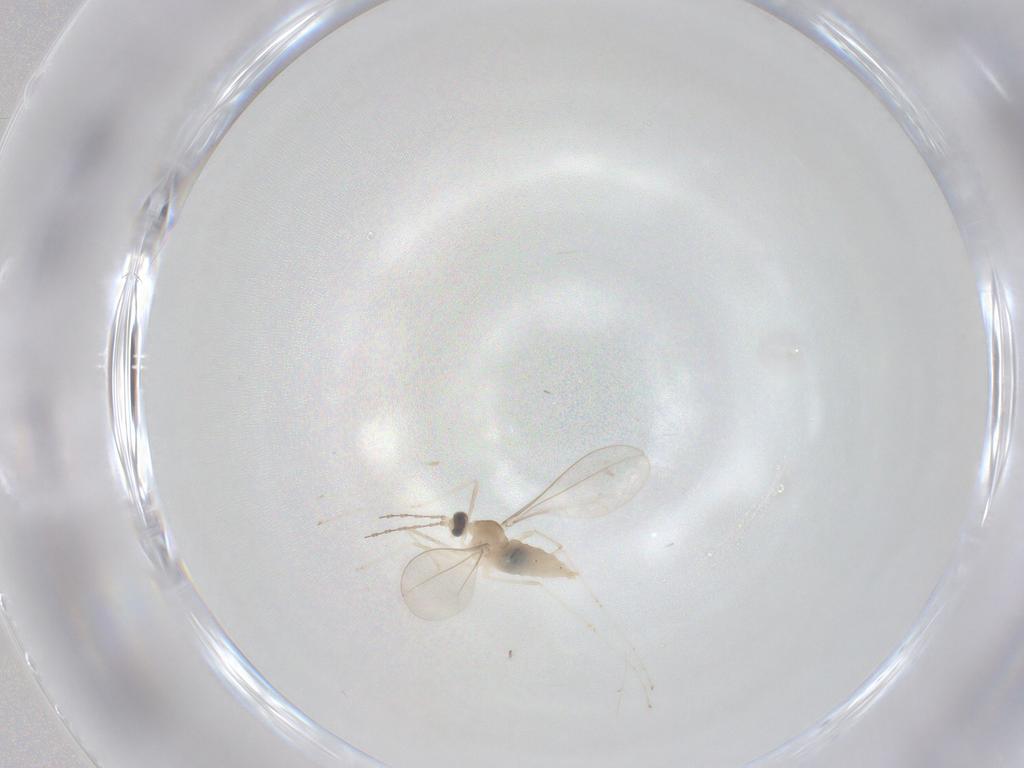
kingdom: Animalia
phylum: Arthropoda
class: Insecta
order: Diptera
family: Cecidomyiidae
